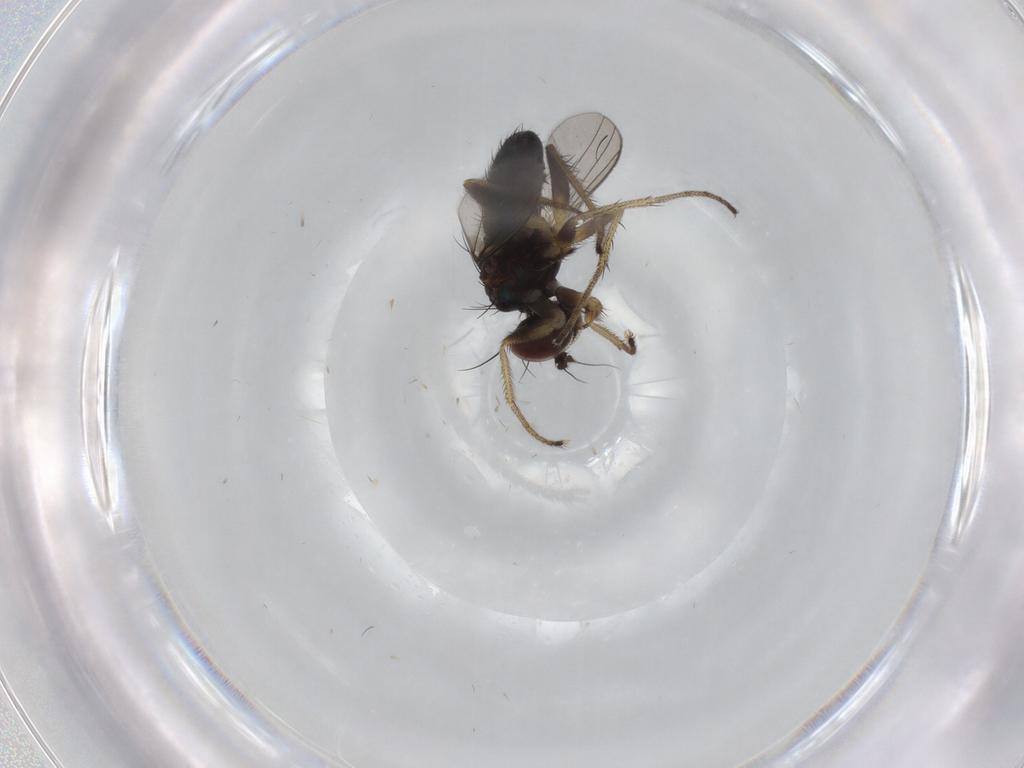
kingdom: Animalia
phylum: Arthropoda
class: Insecta
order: Diptera
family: Dolichopodidae
